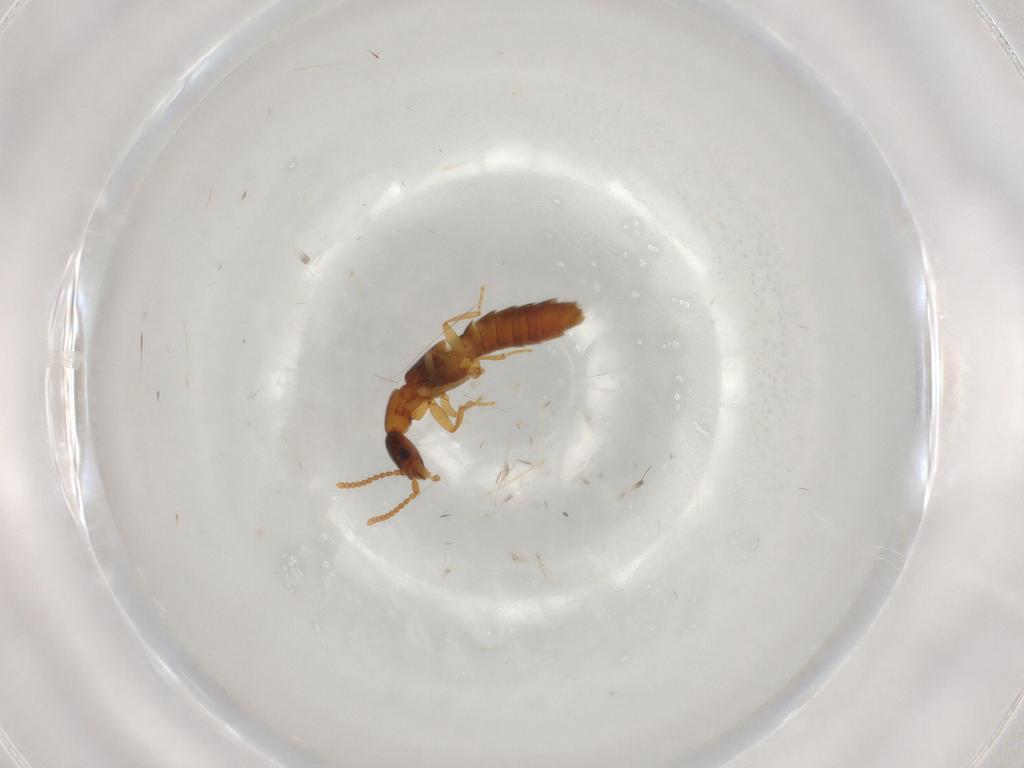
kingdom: Animalia
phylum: Arthropoda
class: Insecta
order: Coleoptera
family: Staphylinidae
